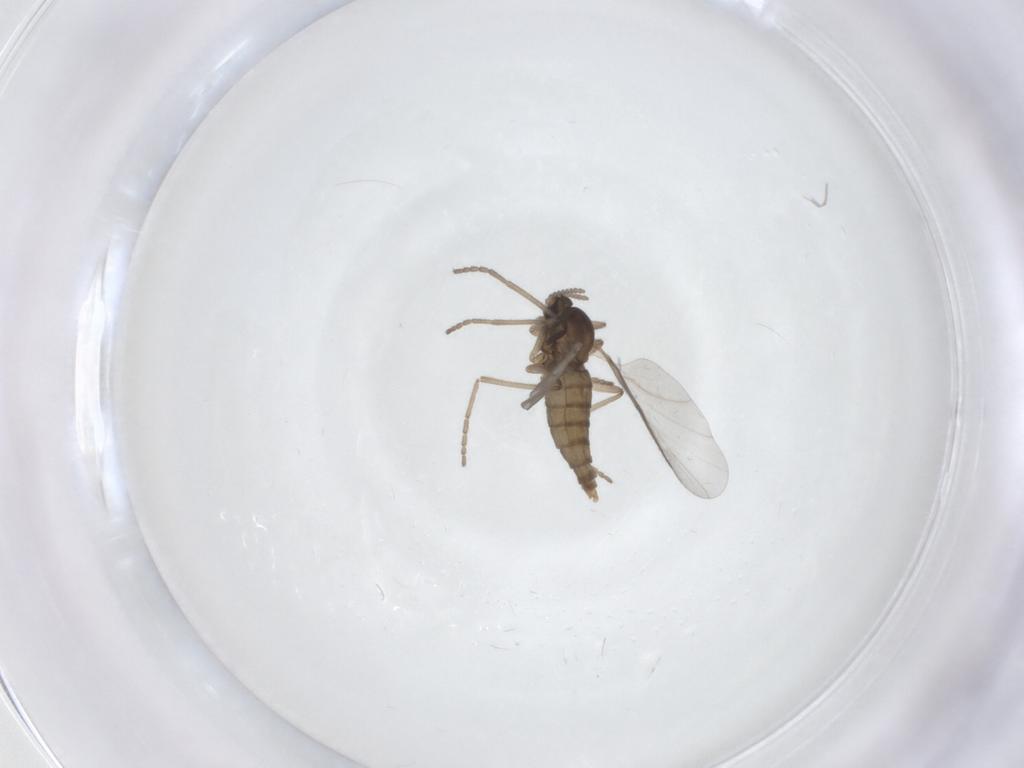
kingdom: Animalia
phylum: Arthropoda
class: Insecta
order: Diptera
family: Cecidomyiidae
